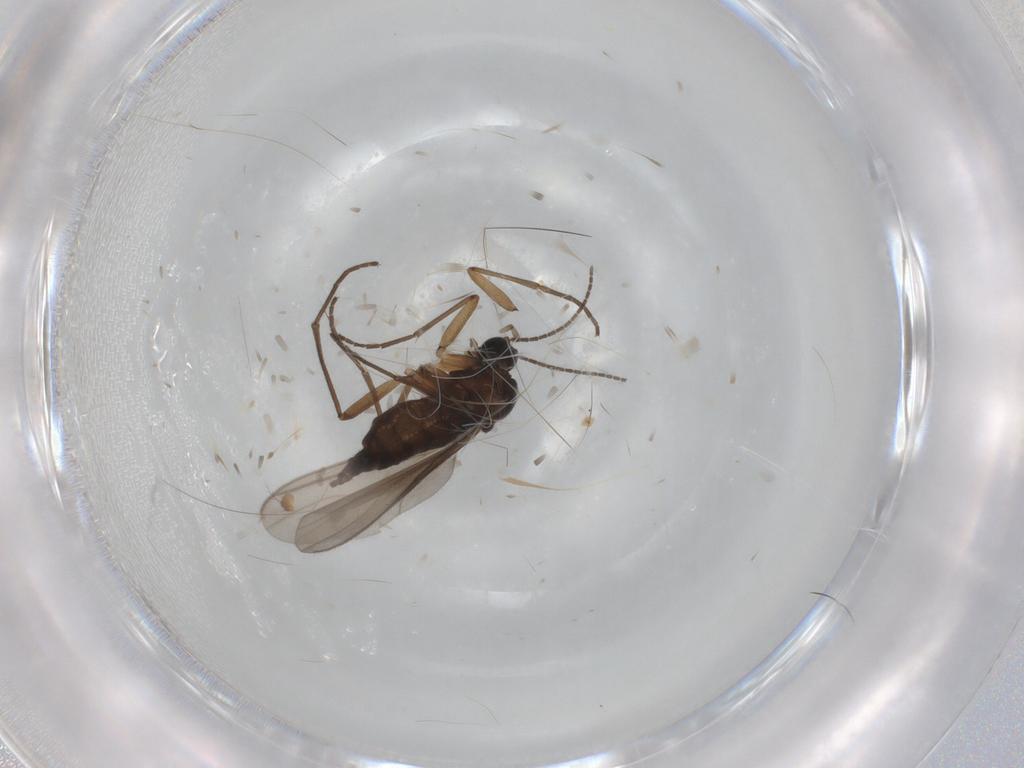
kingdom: Animalia
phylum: Arthropoda
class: Insecta
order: Diptera
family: Sciaridae
